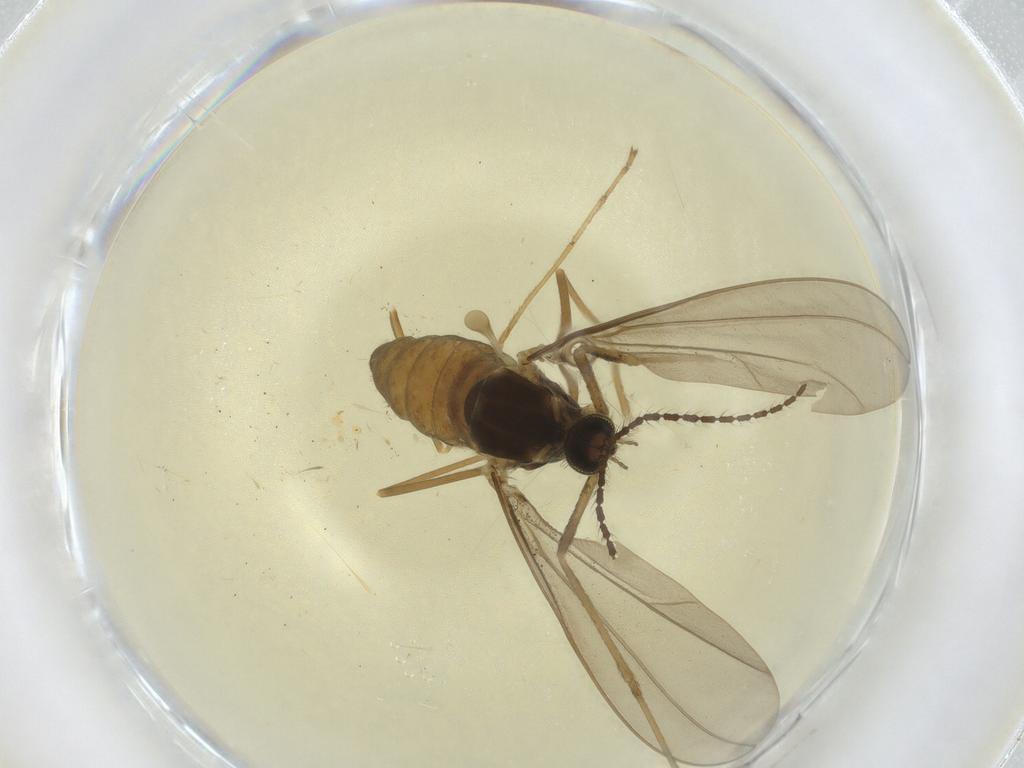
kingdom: Animalia
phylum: Arthropoda
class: Insecta
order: Diptera
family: Cecidomyiidae
